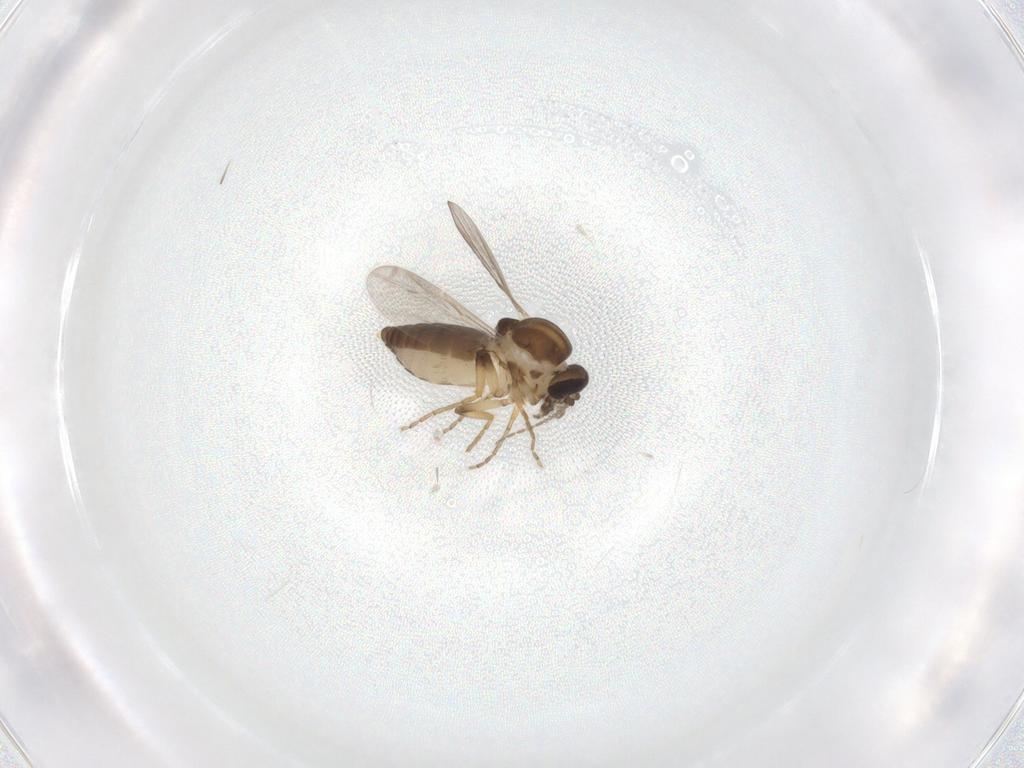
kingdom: Animalia
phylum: Arthropoda
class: Insecta
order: Diptera
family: Ceratopogonidae
